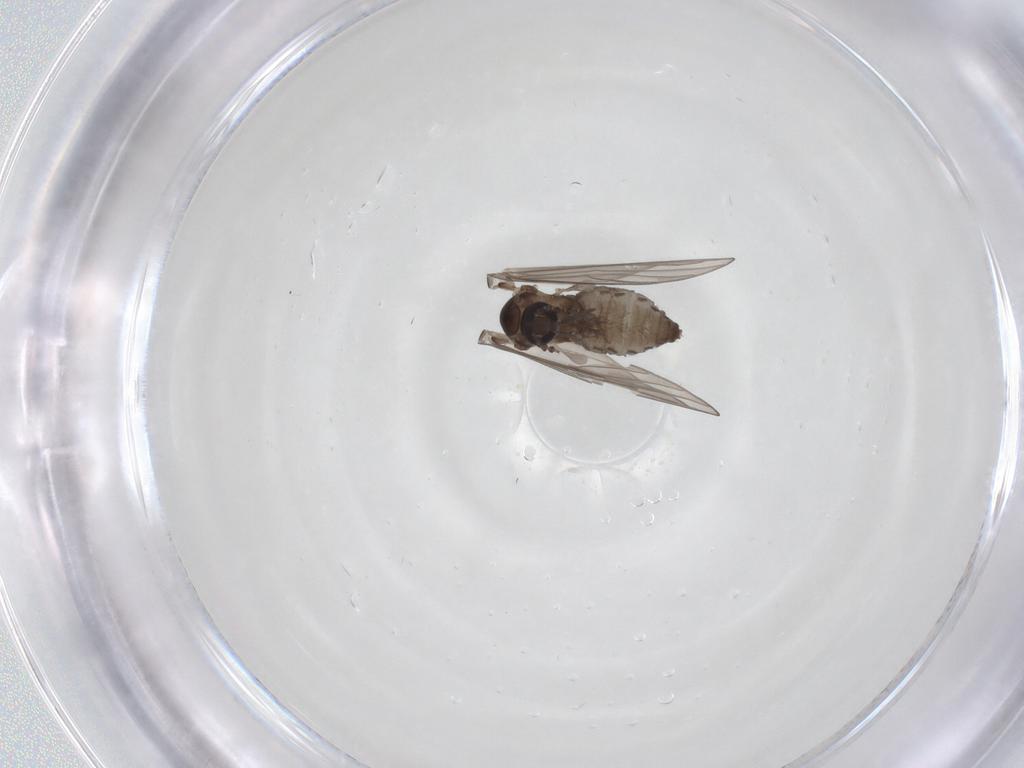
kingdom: Animalia
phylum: Arthropoda
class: Insecta
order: Diptera
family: Psychodidae
